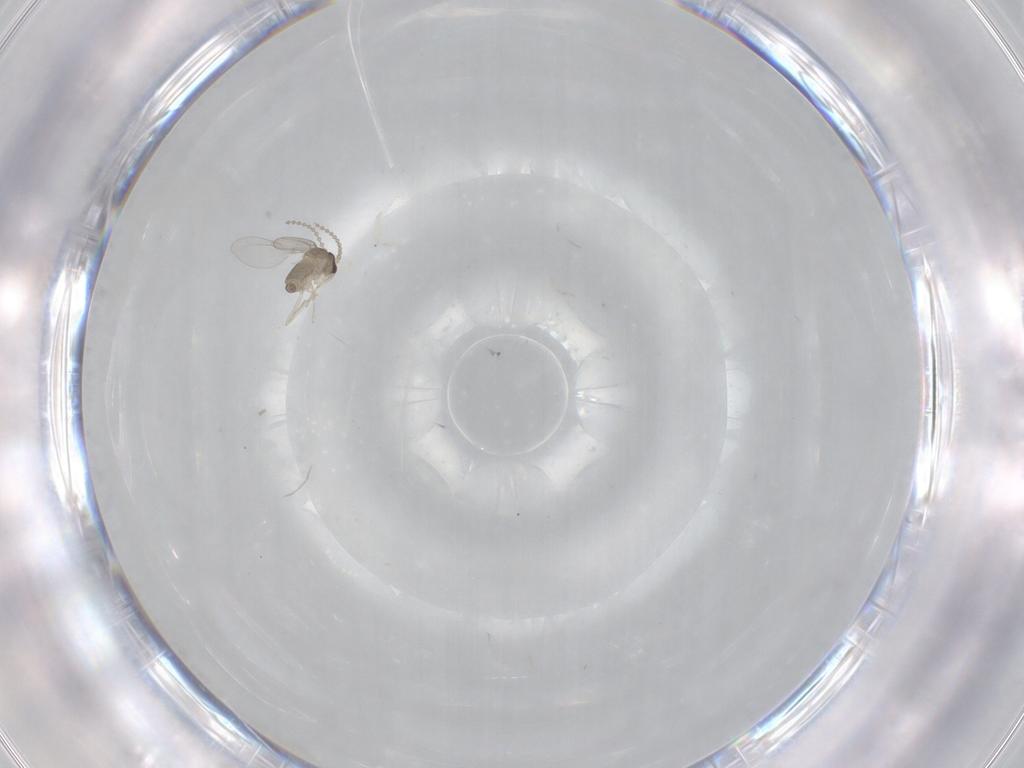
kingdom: Animalia
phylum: Arthropoda
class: Insecta
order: Diptera
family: Cecidomyiidae
